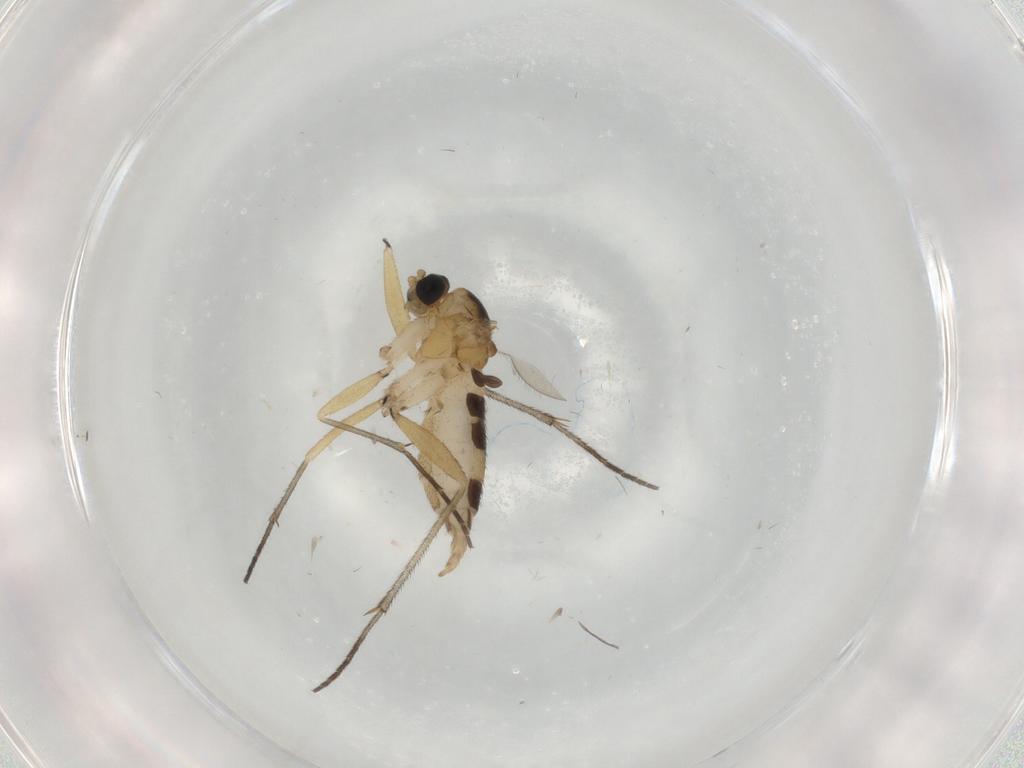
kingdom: Animalia
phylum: Arthropoda
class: Insecta
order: Diptera
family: Sciaridae
